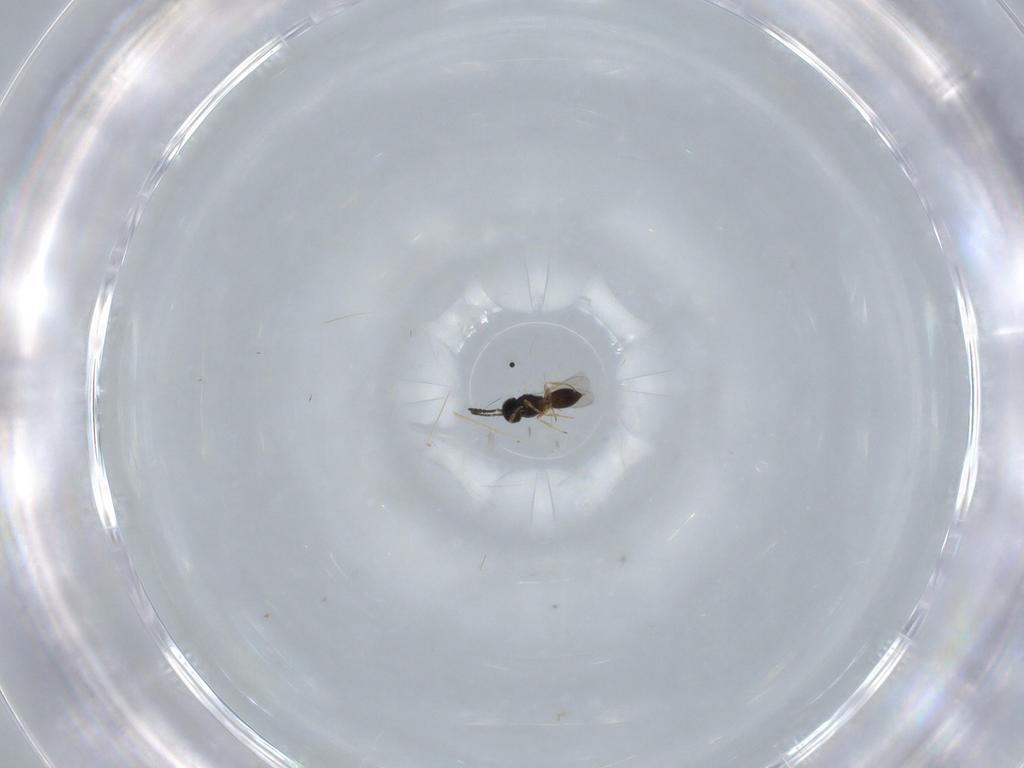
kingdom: Animalia
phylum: Arthropoda
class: Insecta
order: Hymenoptera
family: Scelionidae
